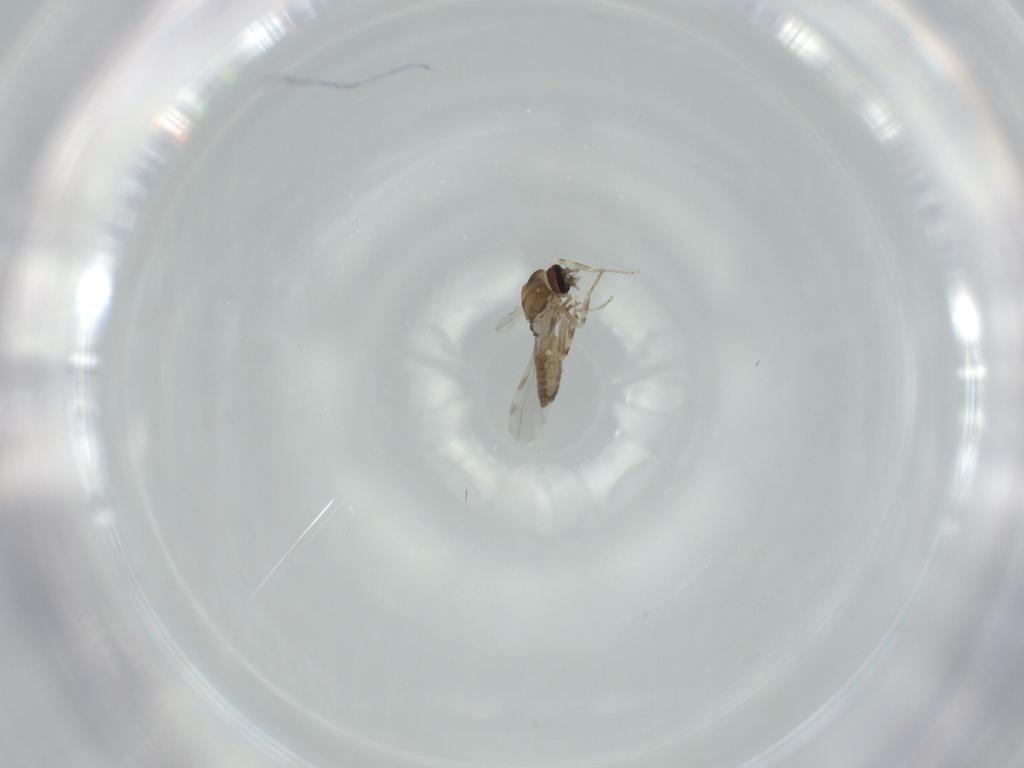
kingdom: Animalia
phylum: Arthropoda
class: Insecta
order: Diptera
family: Ceratopogonidae
